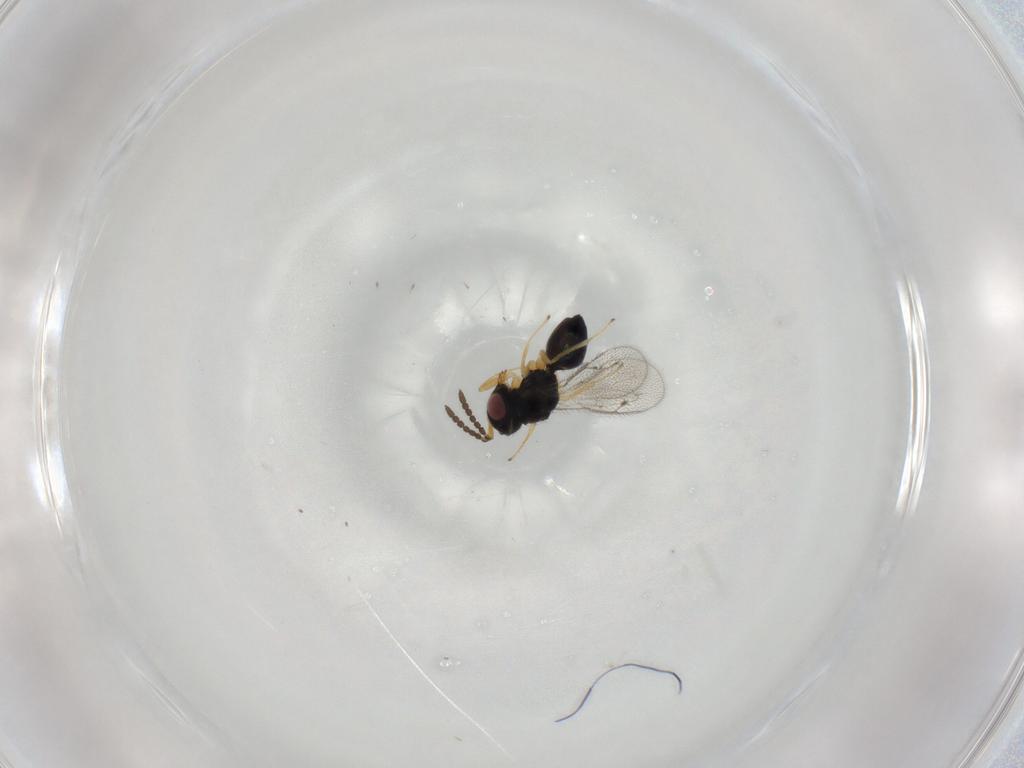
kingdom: Animalia
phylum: Arthropoda
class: Insecta
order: Hymenoptera
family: Pteromalidae
